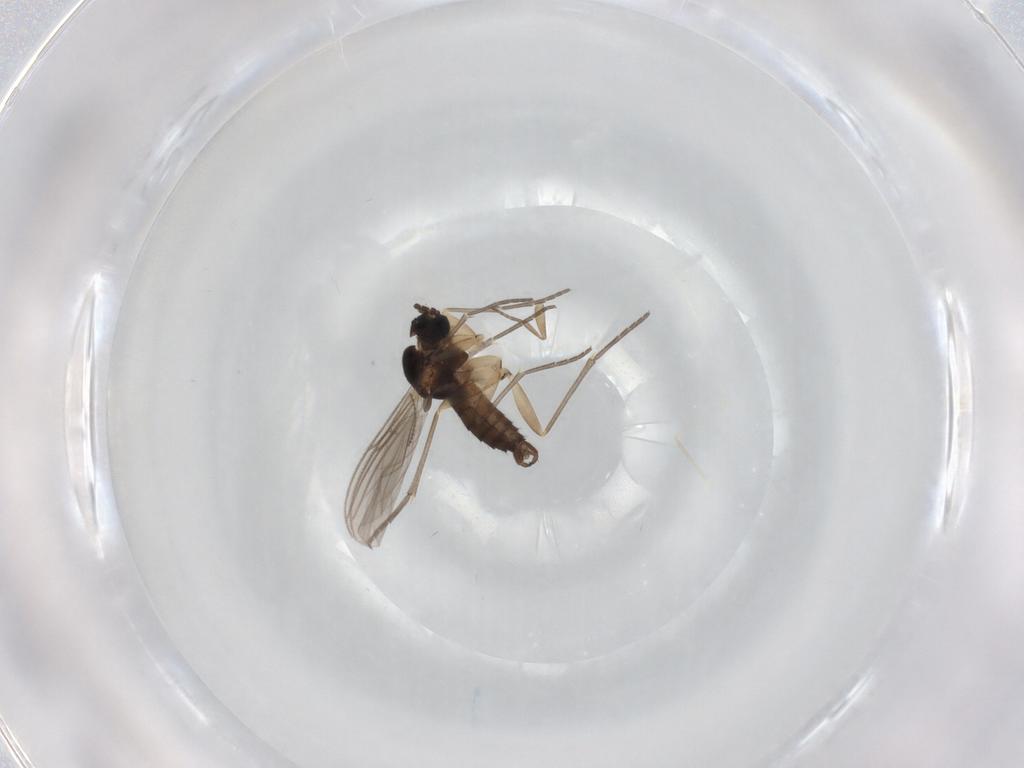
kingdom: Animalia
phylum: Arthropoda
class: Insecta
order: Diptera
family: Sciaridae
